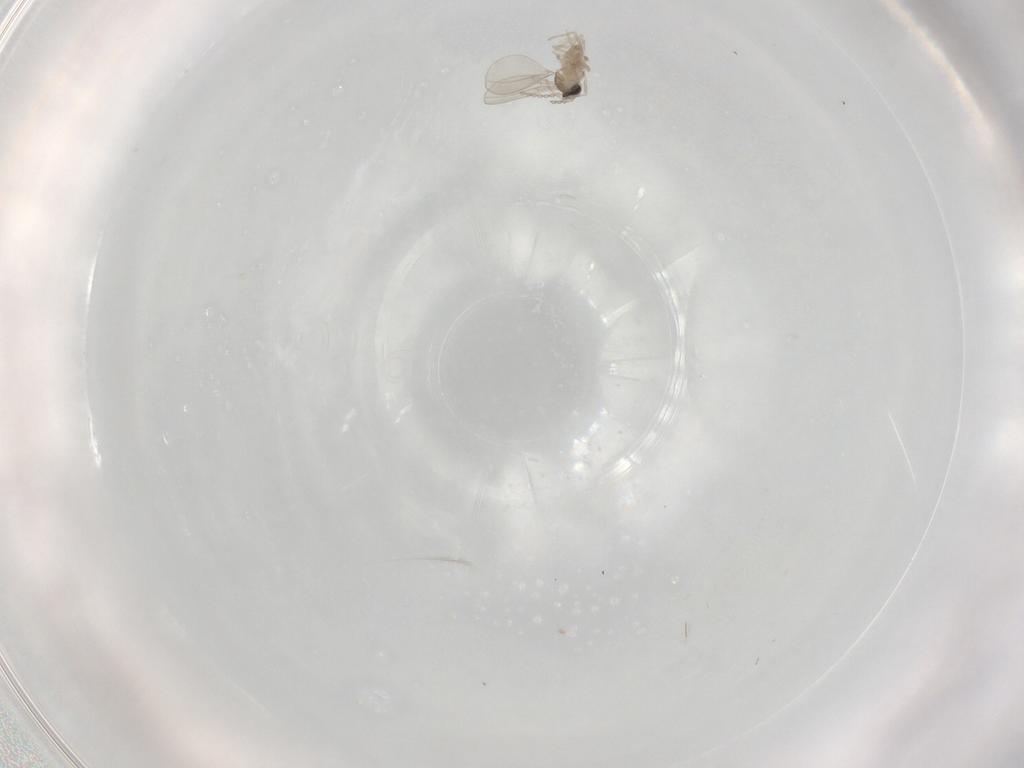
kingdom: Animalia
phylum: Arthropoda
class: Insecta
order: Diptera
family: Cecidomyiidae
